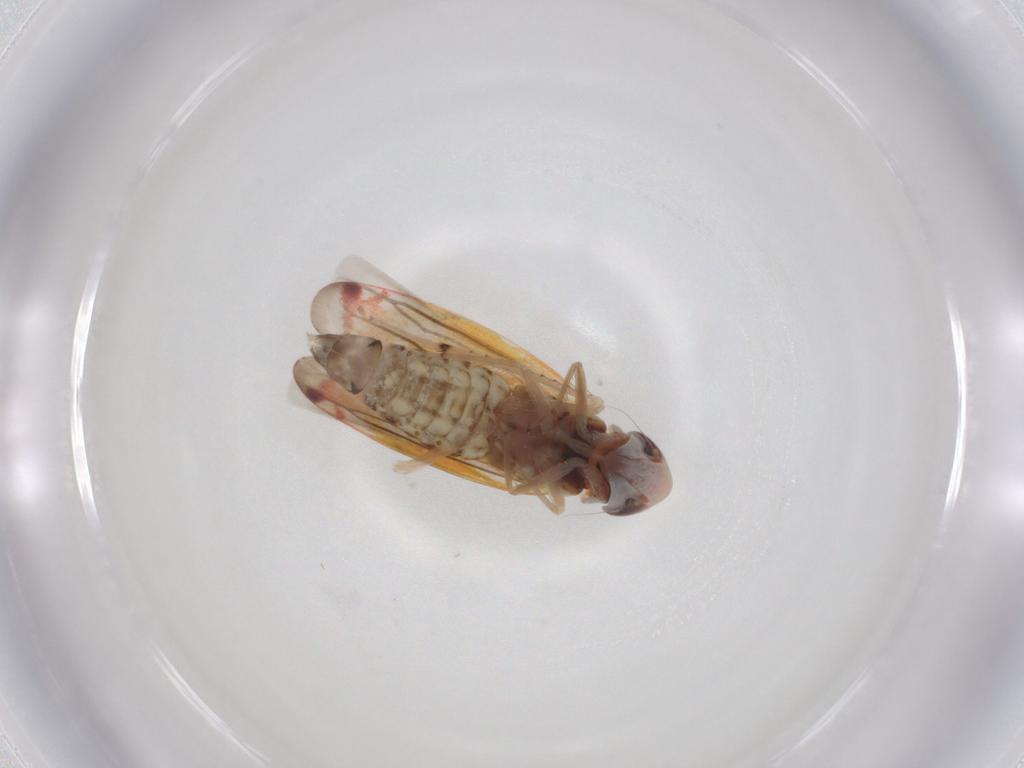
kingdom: Animalia
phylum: Arthropoda
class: Insecta
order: Hemiptera
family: Cicadellidae
